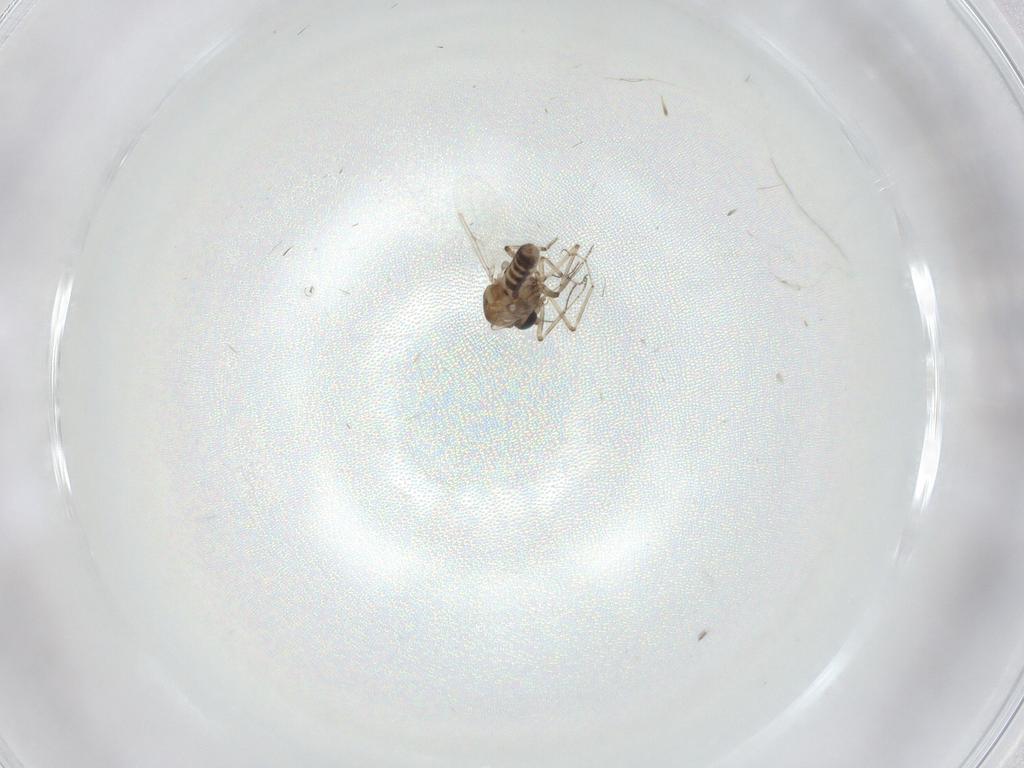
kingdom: Animalia
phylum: Arthropoda
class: Insecta
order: Diptera
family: Ceratopogonidae
